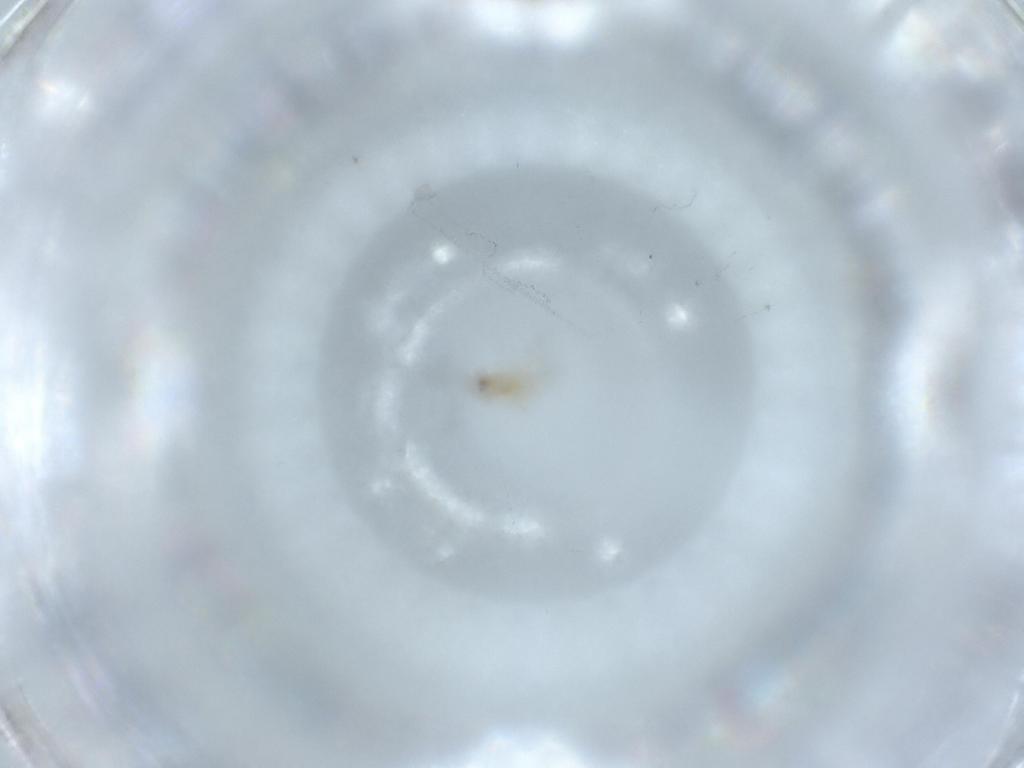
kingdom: Animalia
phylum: Arthropoda
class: Insecta
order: Hymenoptera
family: Mymaridae
